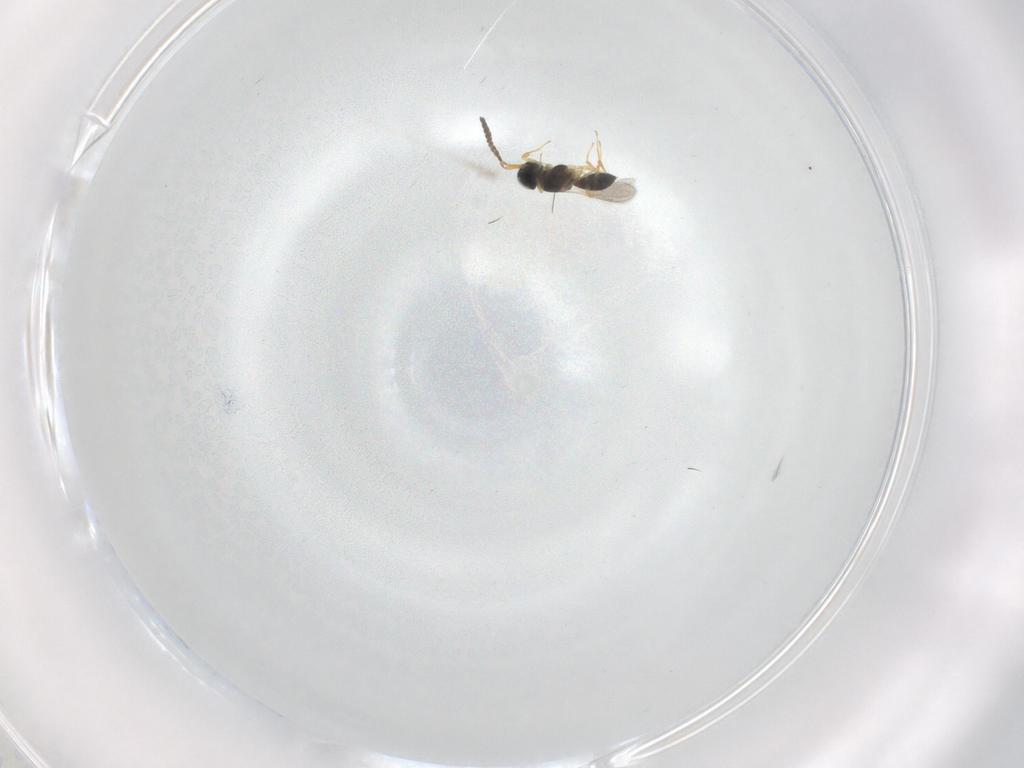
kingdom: Animalia
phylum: Arthropoda
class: Insecta
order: Hymenoptera
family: Scelionidae
